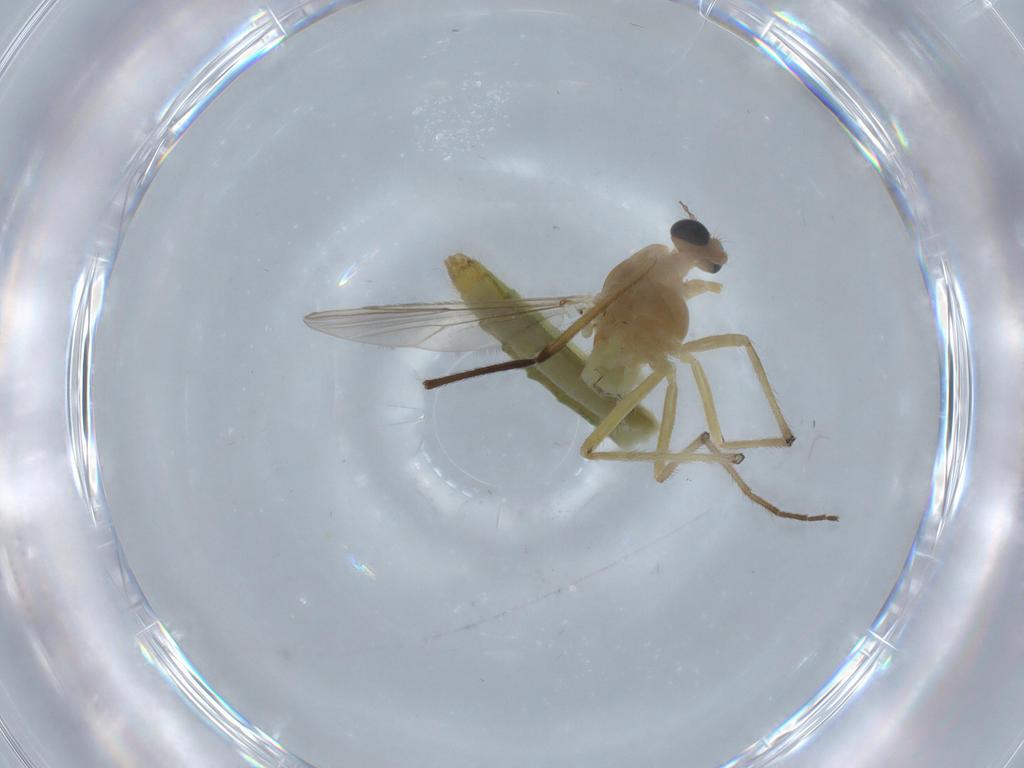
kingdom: Animalia
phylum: Arthropoda
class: Insecta
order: Diptera
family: Chironomidae
